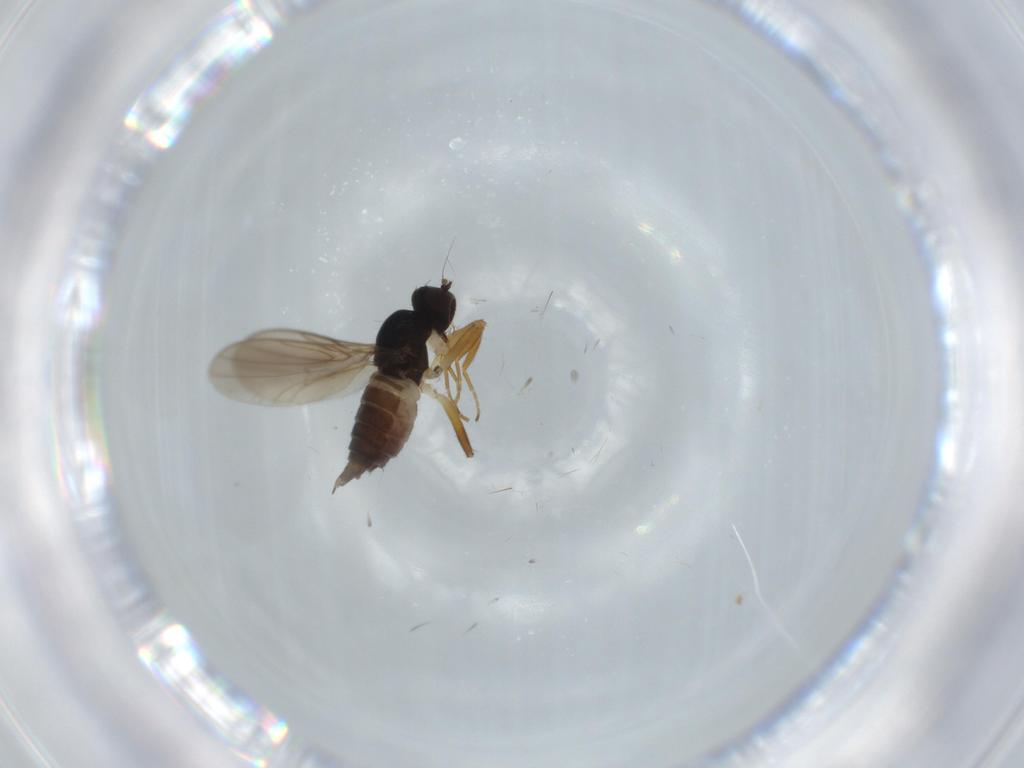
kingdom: Animalia
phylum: Arthropoda
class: Insecta
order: Diptera
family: Hybotidae
